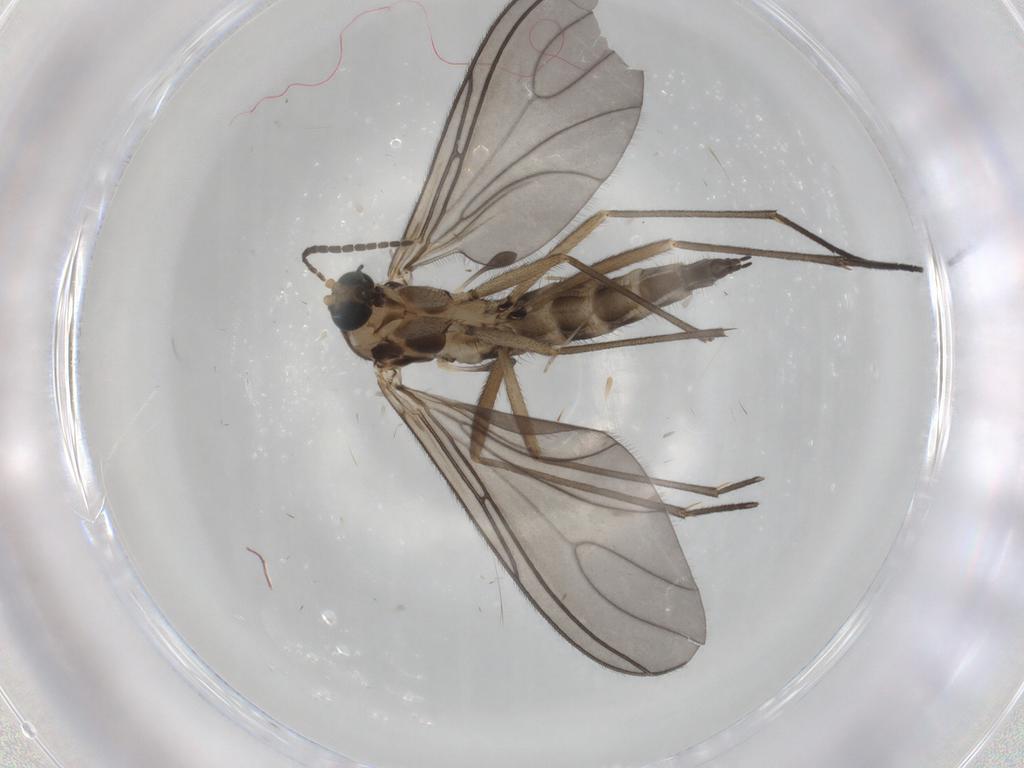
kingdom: Animalia
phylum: Arthropoda
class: Insecta
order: Diptera
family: Sciaridae
